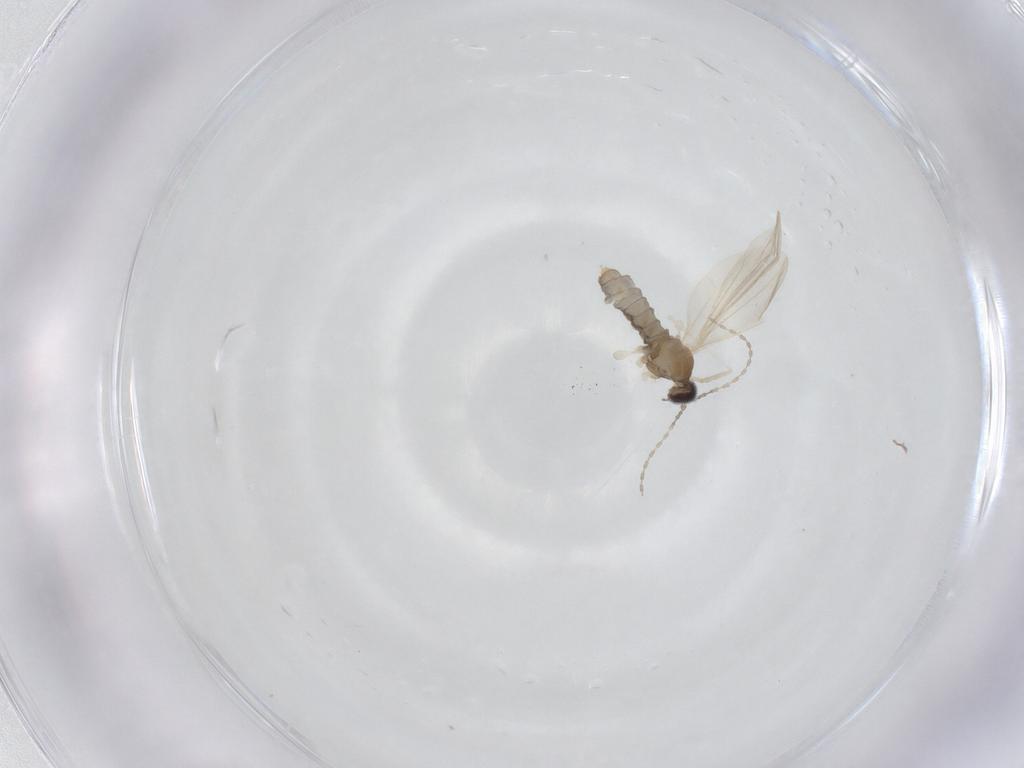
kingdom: Animalia
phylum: Arthropoda
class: Insecta
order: Diptera
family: Cecidomyiidae
